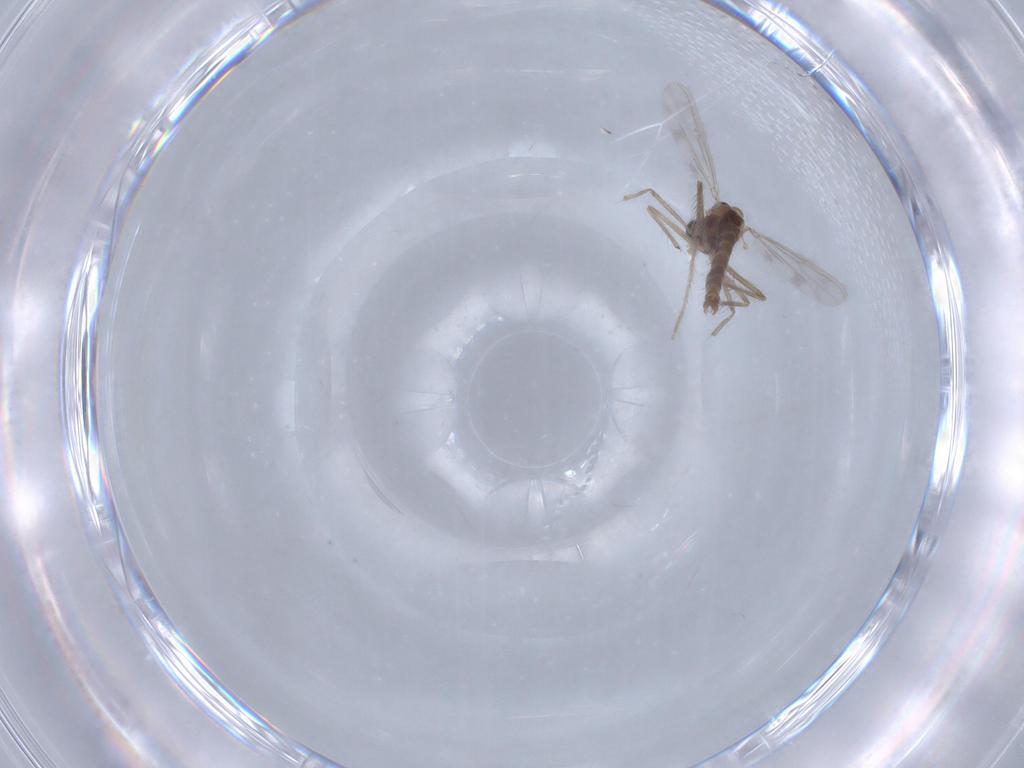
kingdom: Animalia
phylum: Arthropoda
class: Insecta
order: Diptera
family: Chironomidae
